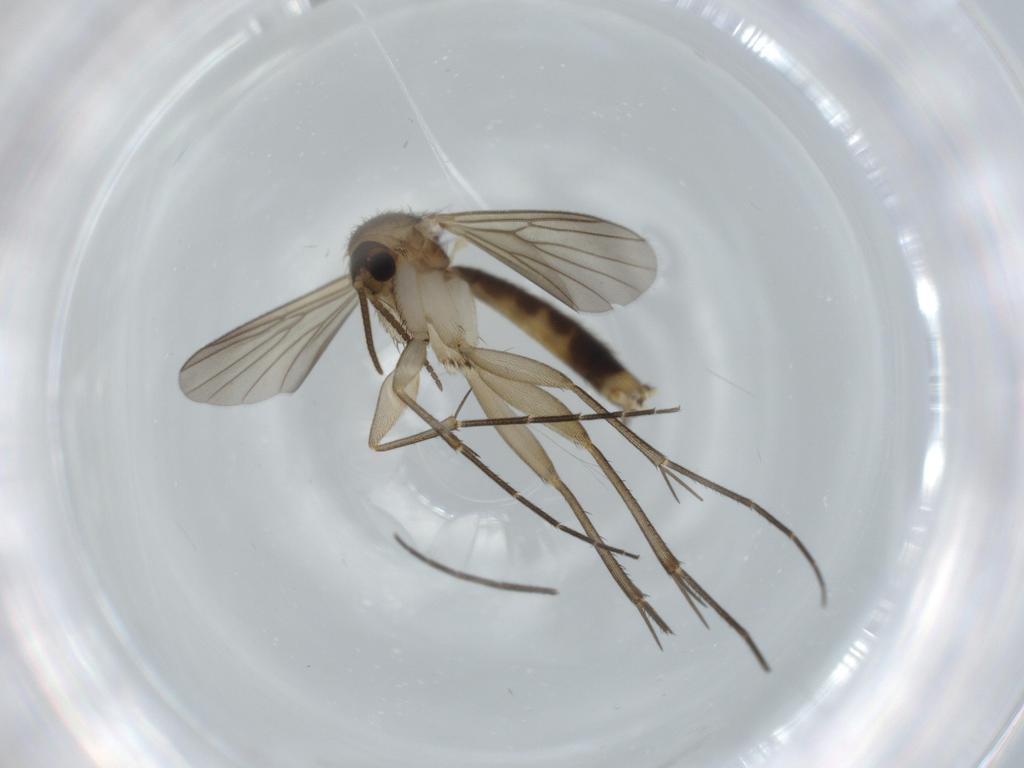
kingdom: Animalia
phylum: Arthropoda
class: Insecta
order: Diptera
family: Mycetophilidae
